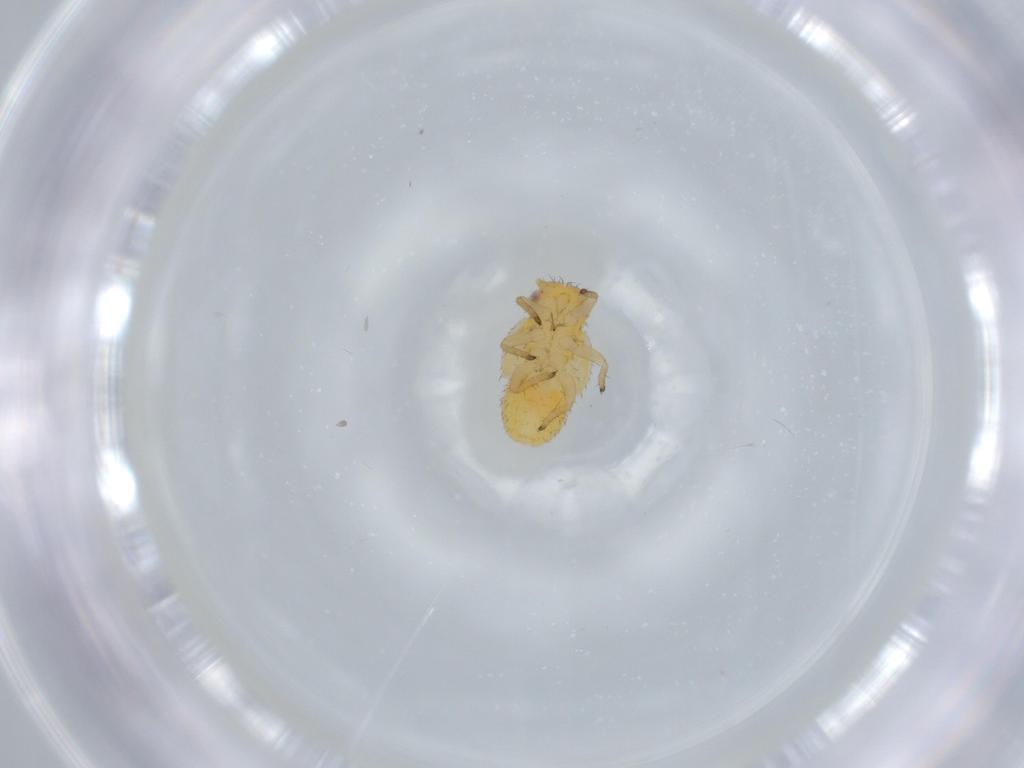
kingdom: Animalia
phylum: Arthropoda
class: Insecta
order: Hemiptera
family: Psyllidae
